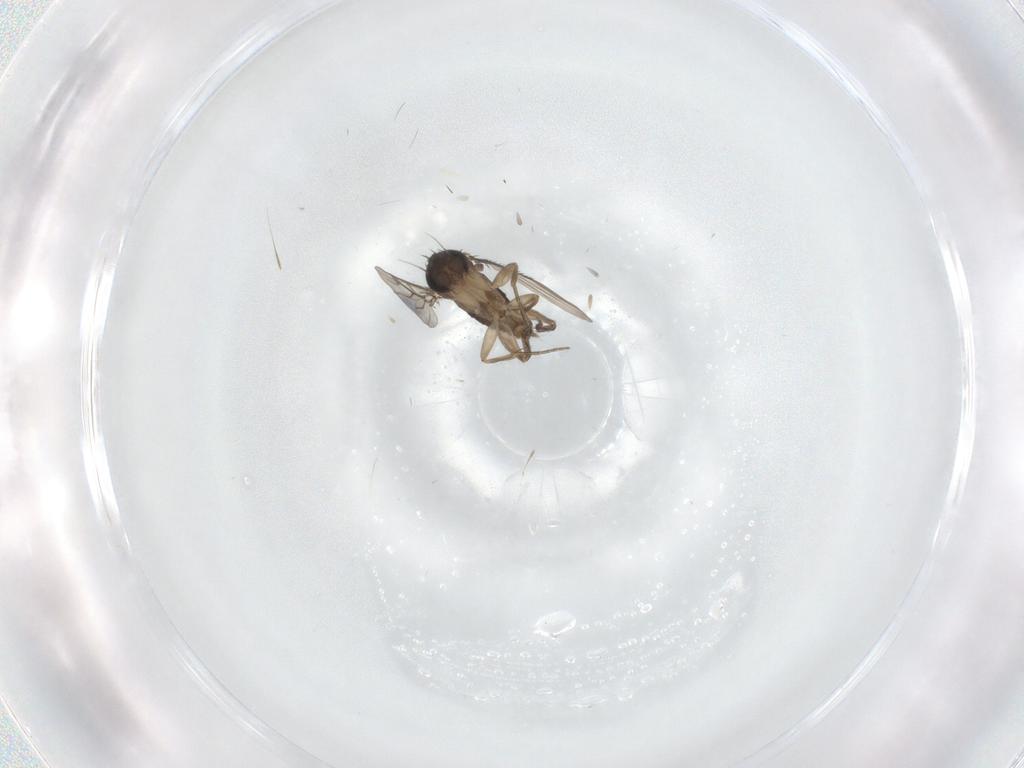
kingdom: Animalia
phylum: Arthropoda
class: Insecta
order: Diptera
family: Phoridae
